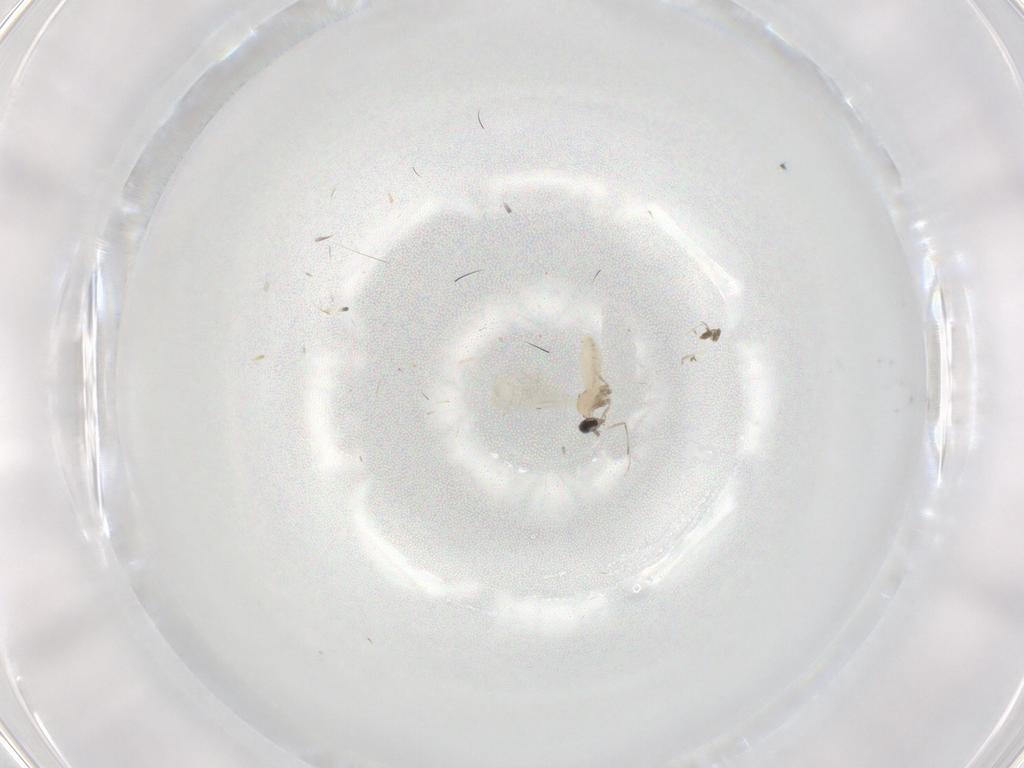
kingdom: Animalia
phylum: Arthropoda
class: Insecta
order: Diptera
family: Cecidomyiidae
